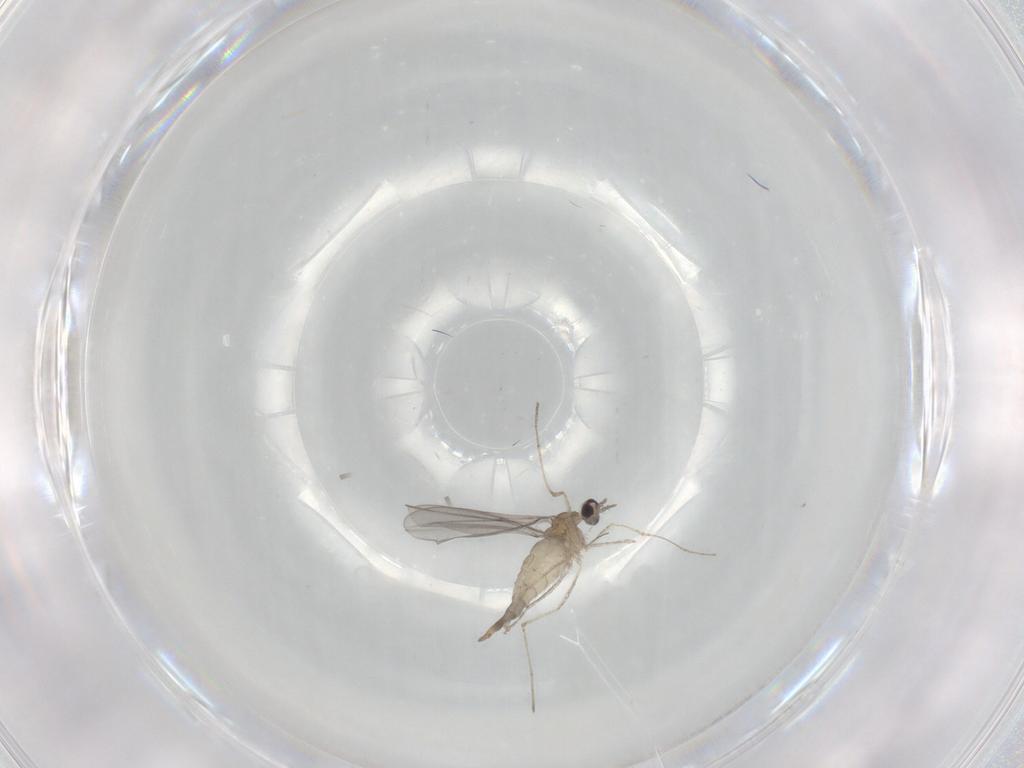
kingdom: Animalia
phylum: Arthropoda
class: Insecta
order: Diptera
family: Cecidomyiidae
